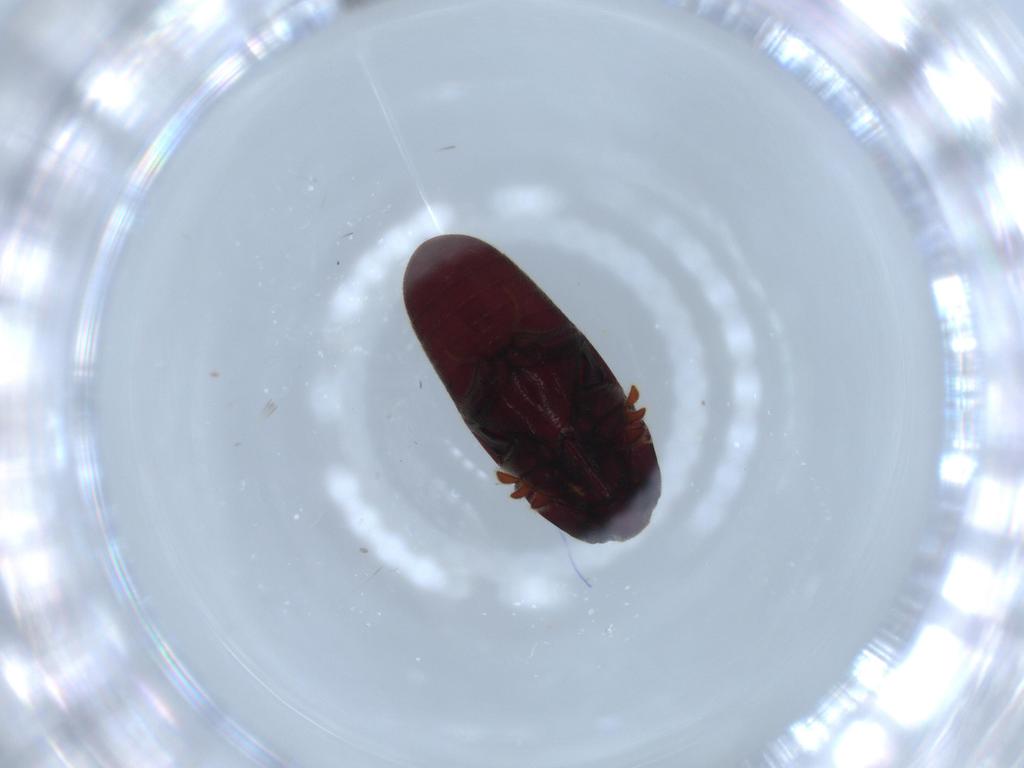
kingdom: Animalia
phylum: Arthropoda
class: Insecta
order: Coleoptera
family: Throscidae
